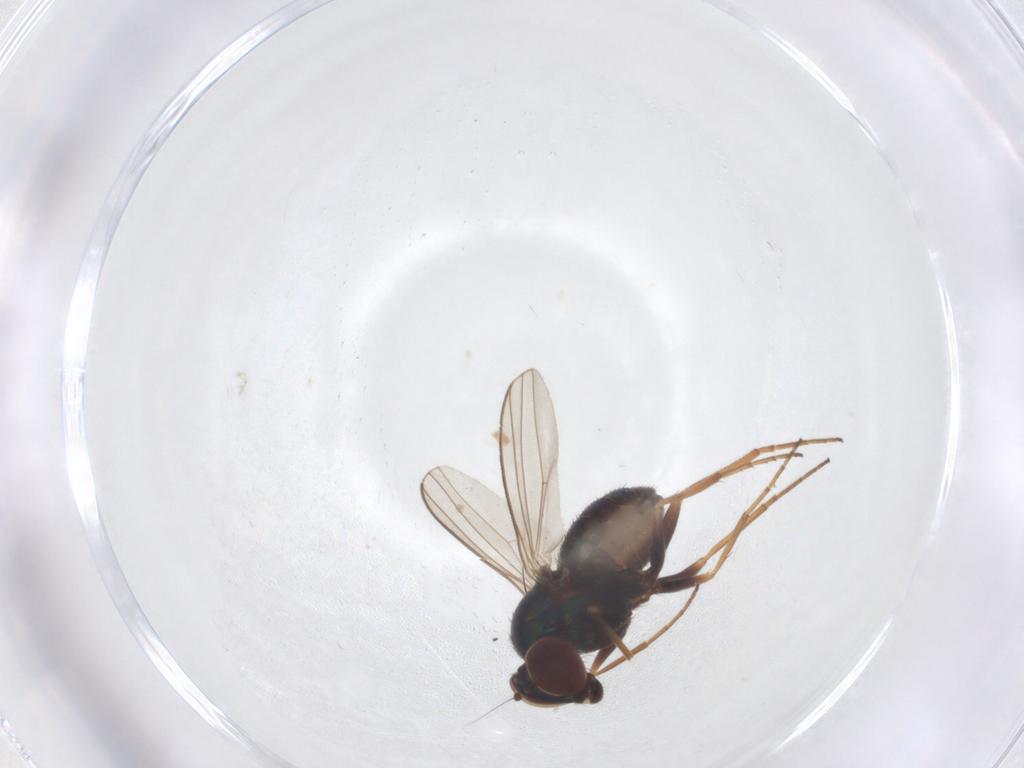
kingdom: Animalia
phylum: Arthropoda
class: Insecta
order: Diptera
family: Dolichopodidae
